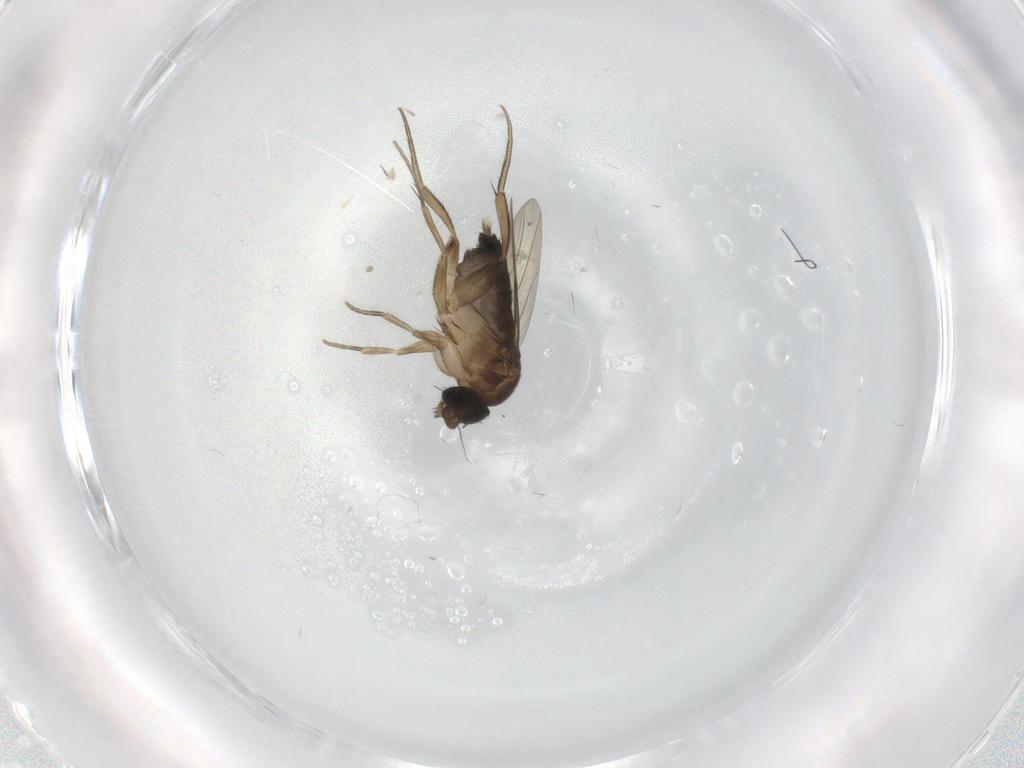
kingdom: Animalia
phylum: Arthropoda
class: Insecta
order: Diptera
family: Phoridae
